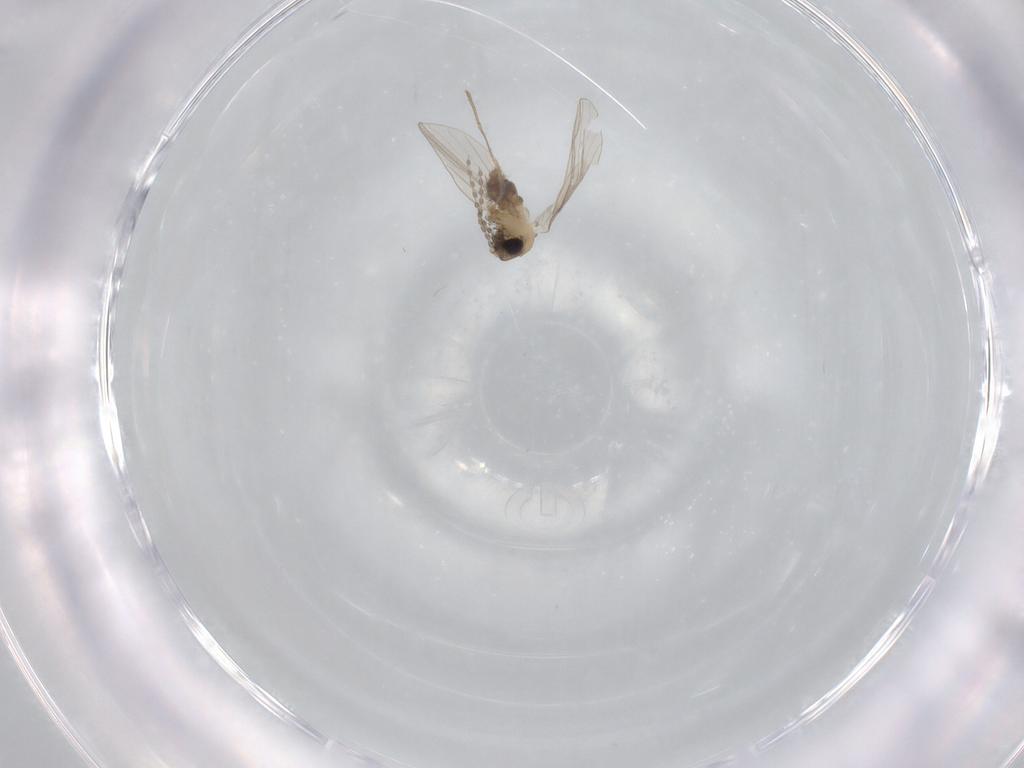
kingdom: Animalia
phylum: Arthropoda
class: Insecta
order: Diptera
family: Psychodidae
